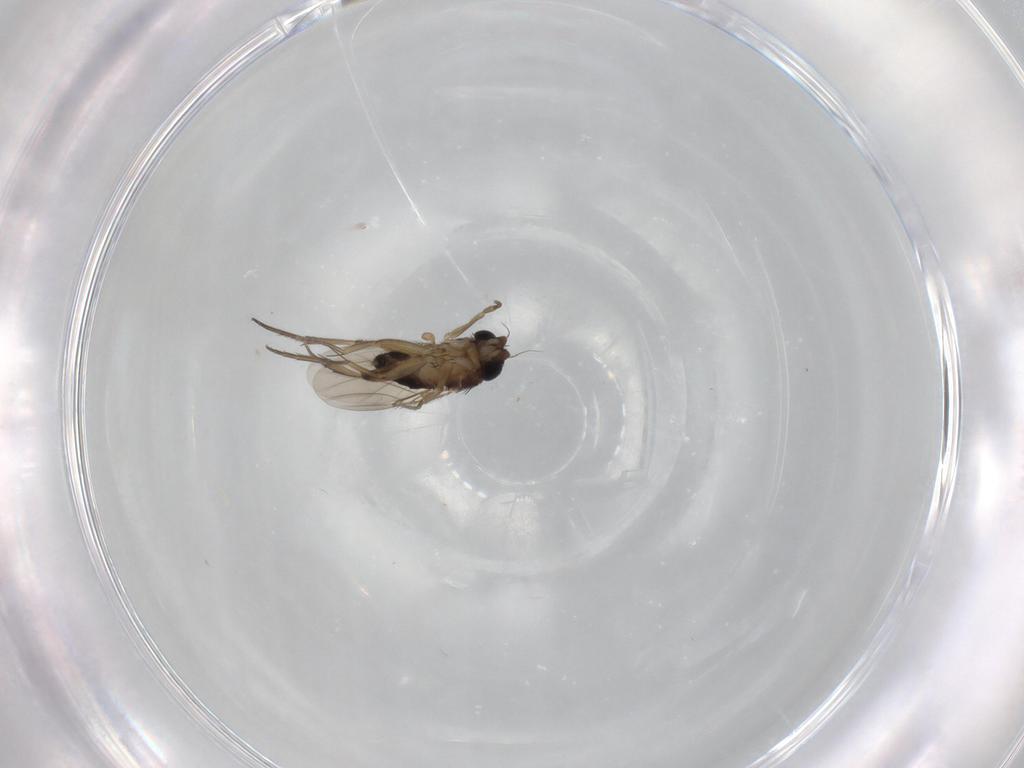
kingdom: Animalia
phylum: Arthropoda
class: Insecta
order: Diptera
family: Phoridae
